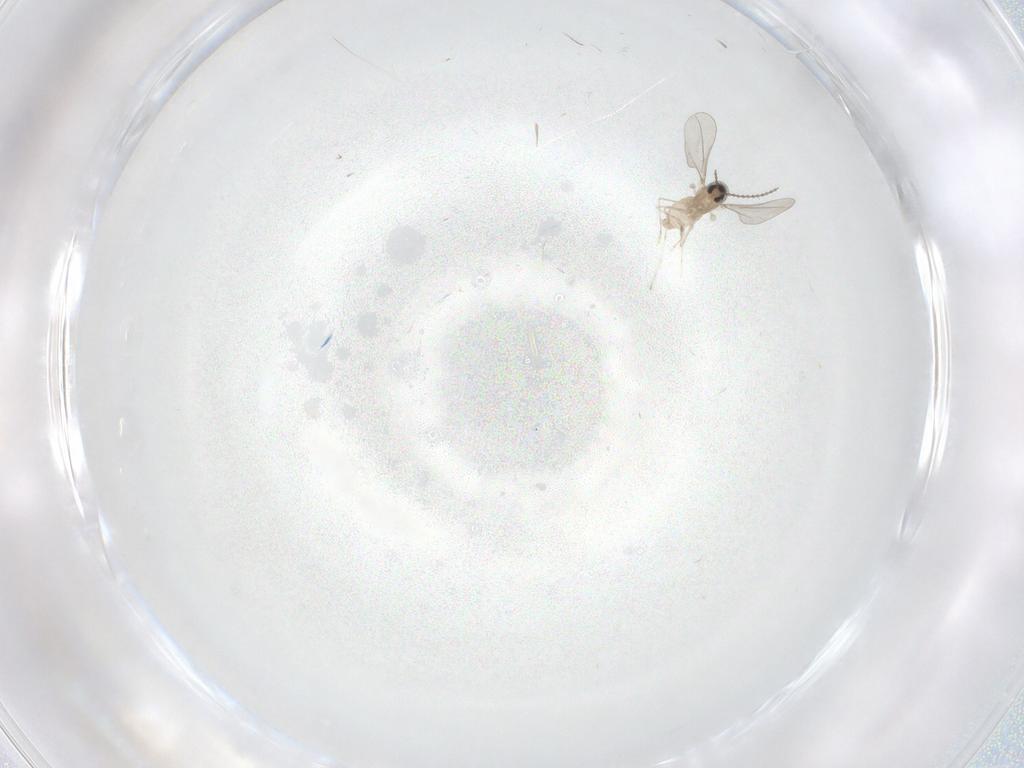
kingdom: Animalia
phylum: Arthropoda
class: Insecta
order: Diptera
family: Cecidomyiidae
